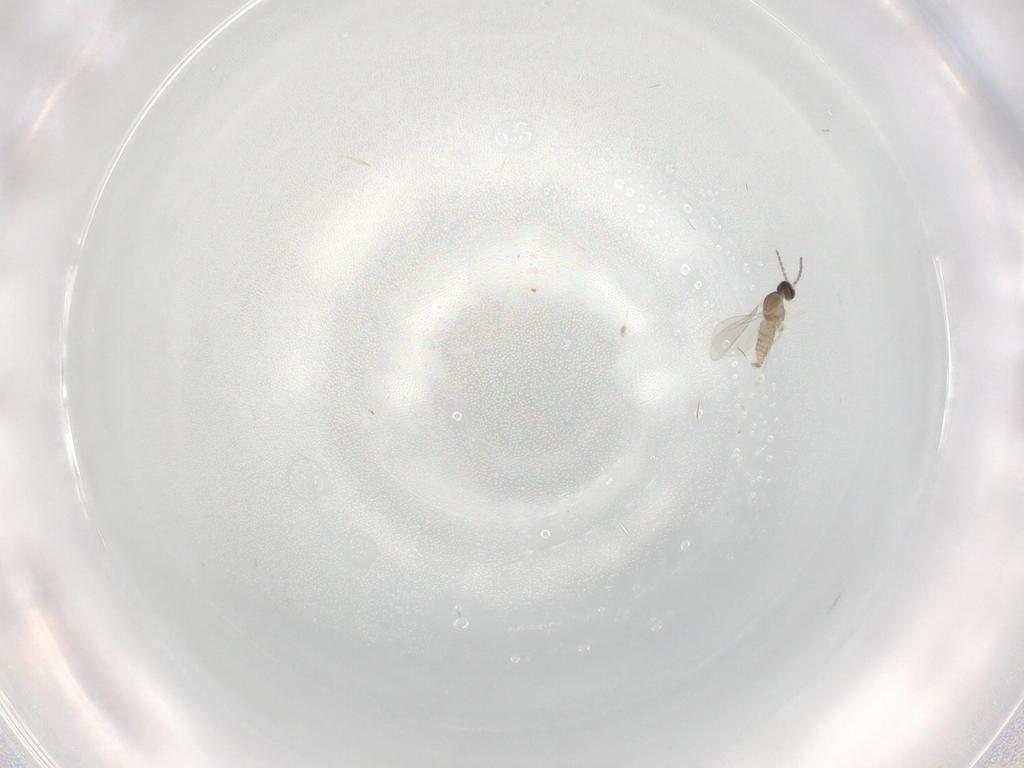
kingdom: Animalia
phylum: Arthropoda
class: Insecta
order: Diptera
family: Cecidomyiidae
